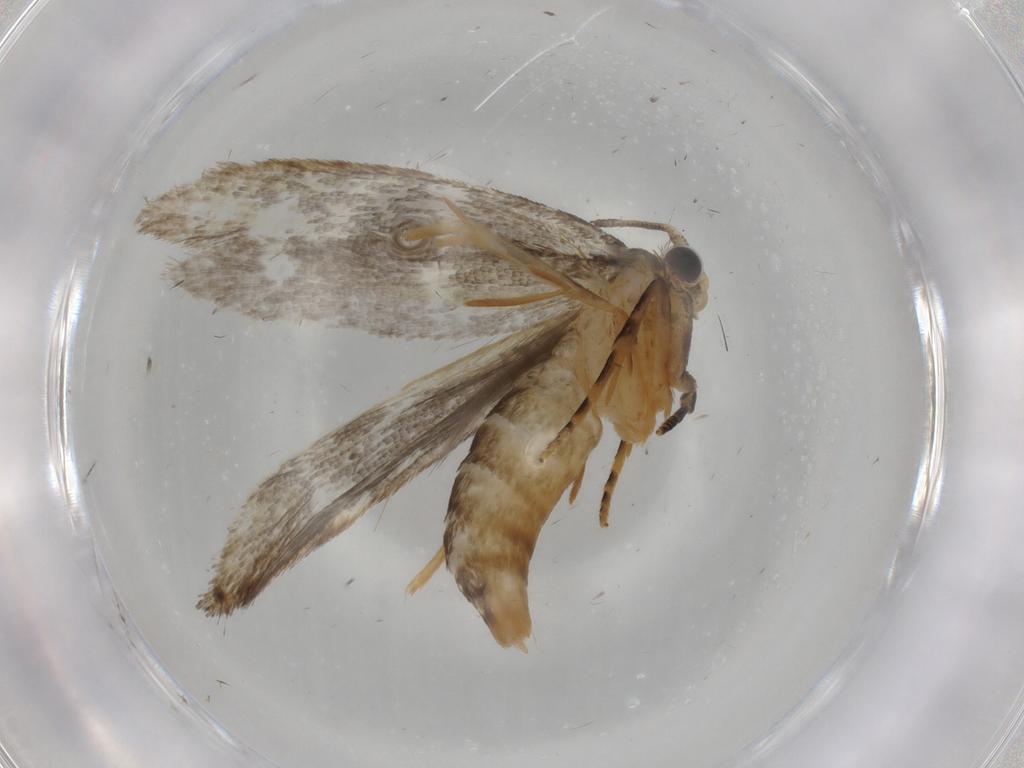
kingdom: Animalia
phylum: Arthropoda
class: Insecta
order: Lepidoptera
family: Tineidae
